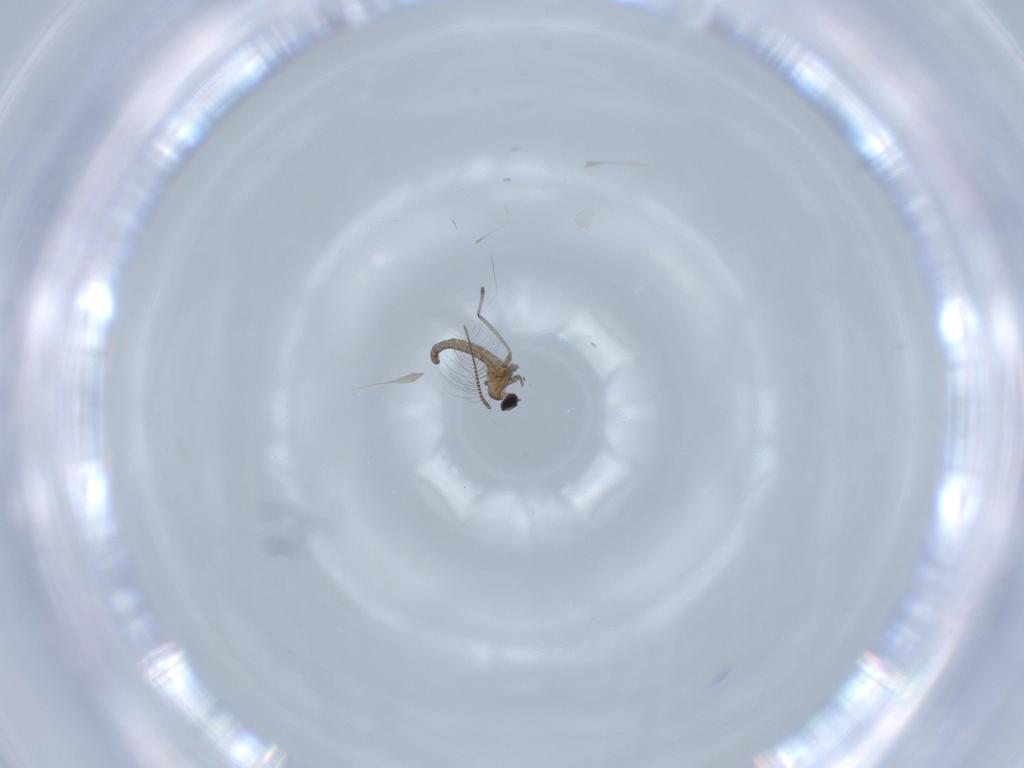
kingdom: Animalia
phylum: Arthropoda
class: Insecta
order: Diptera
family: Cecidomyiidae
